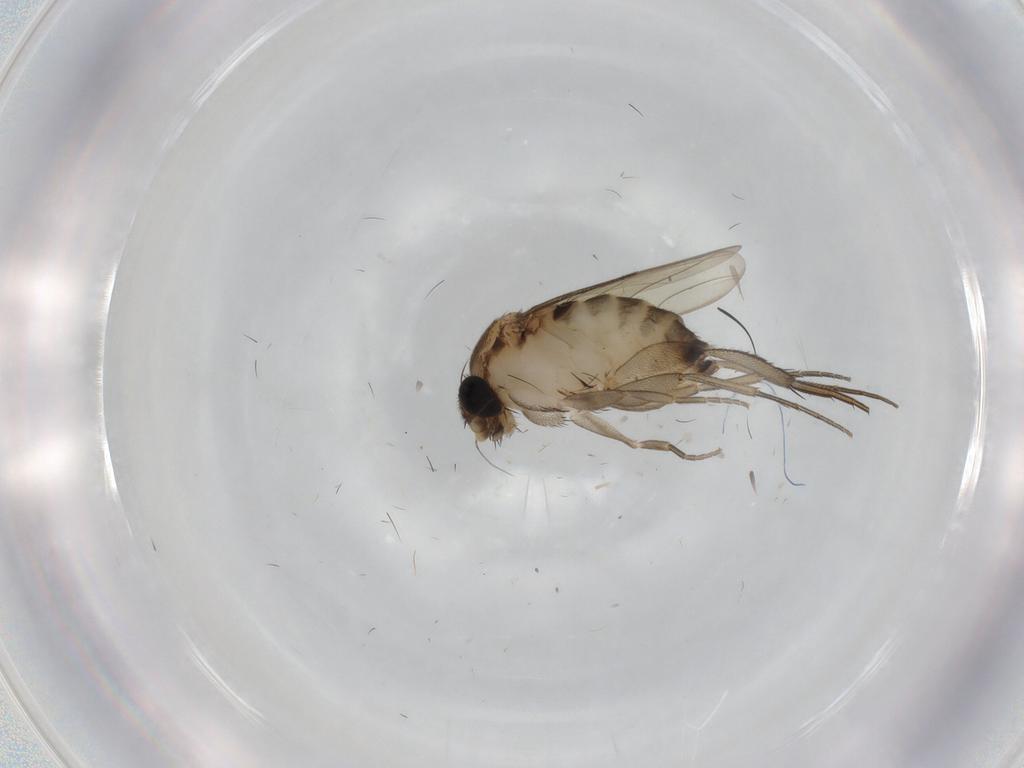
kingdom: Animalia
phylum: Arthropoda
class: Insecta
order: Diptera
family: Phoridae
